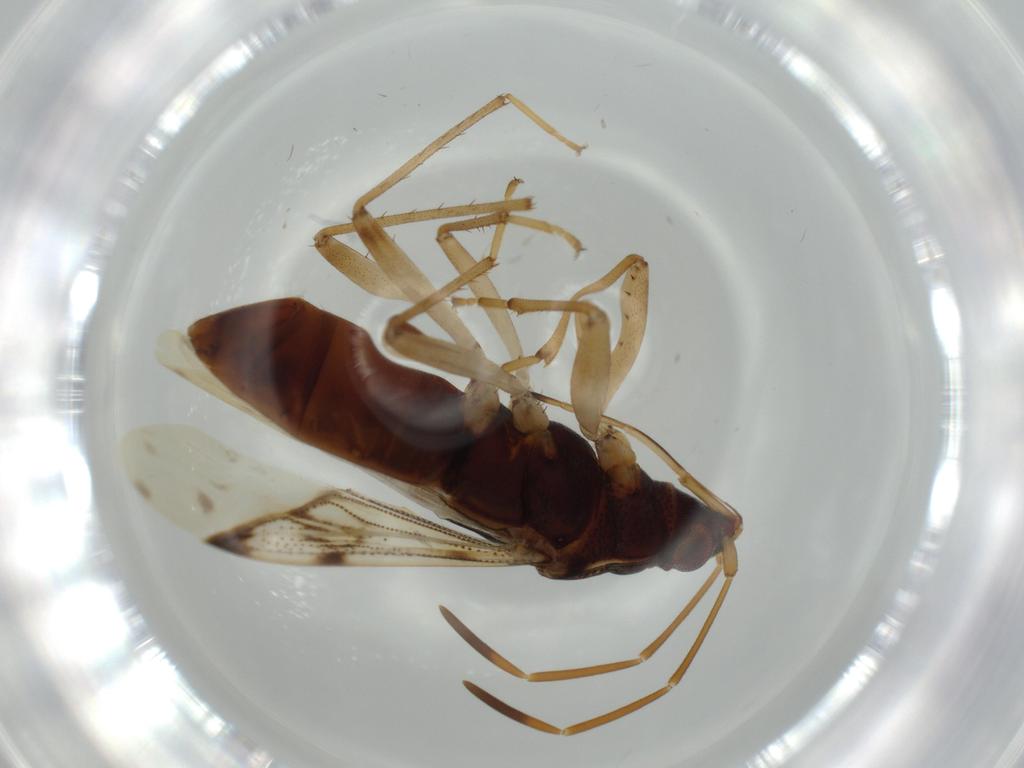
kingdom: Animalia
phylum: Arthropoda
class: Insecta
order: Hemiptera
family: Rhyparochromidae
